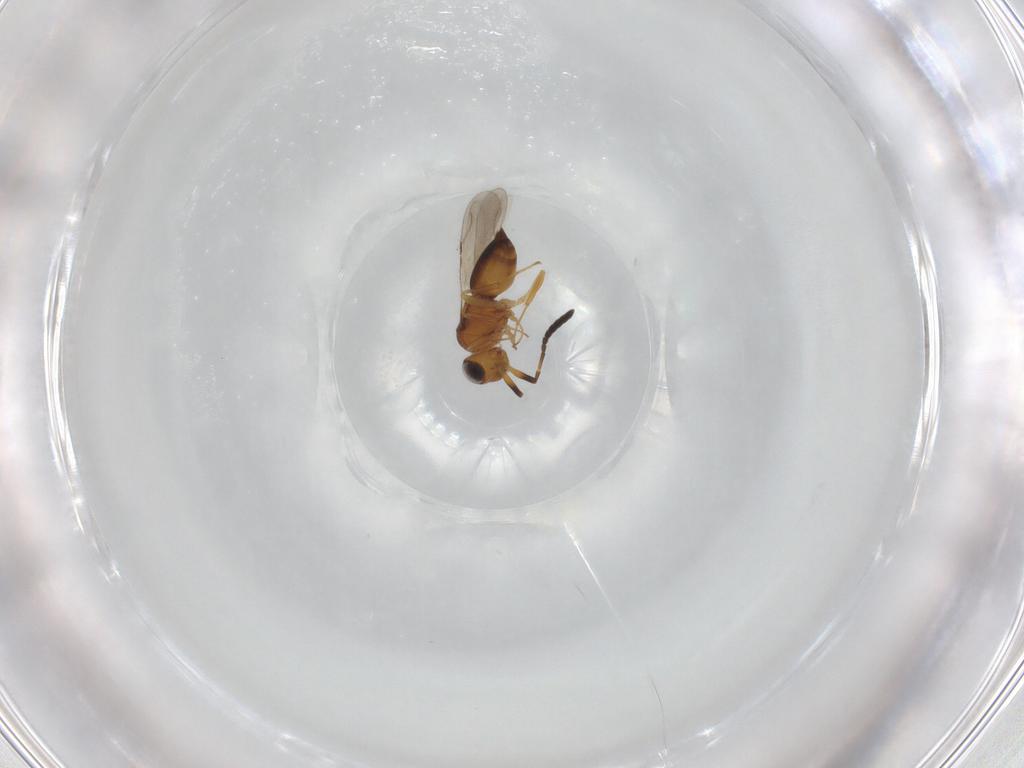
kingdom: Animalia
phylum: Arthropoda
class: Insecta
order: Hymenoptera
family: Ceraphronidae
